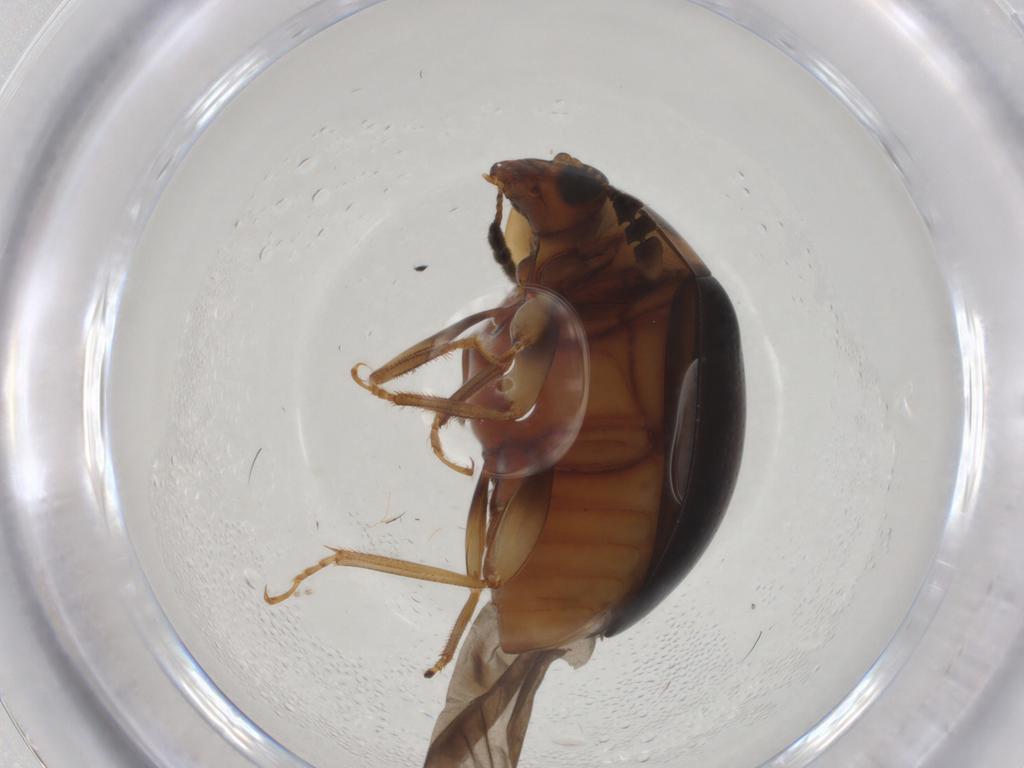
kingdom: Animalia
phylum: Arthropoda
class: Insecta
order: Coleoptera
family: Nitidulidae
